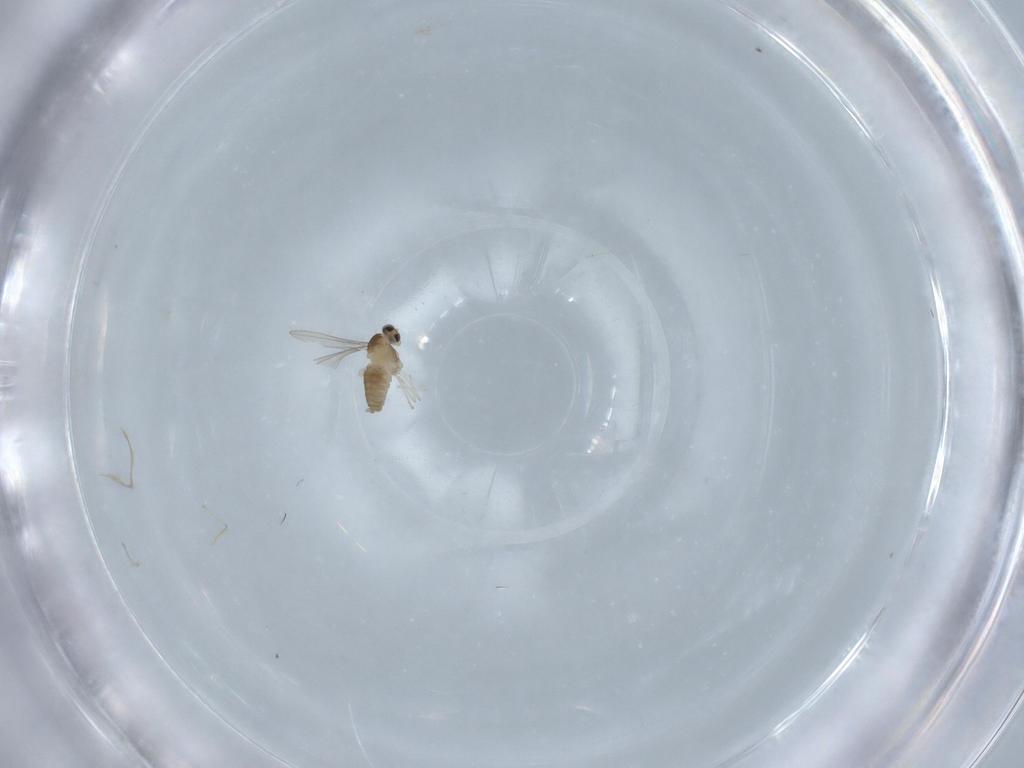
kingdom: Animalia
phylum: Arthropoda
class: Insecta
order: Diptera
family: Cecidomyiidae
